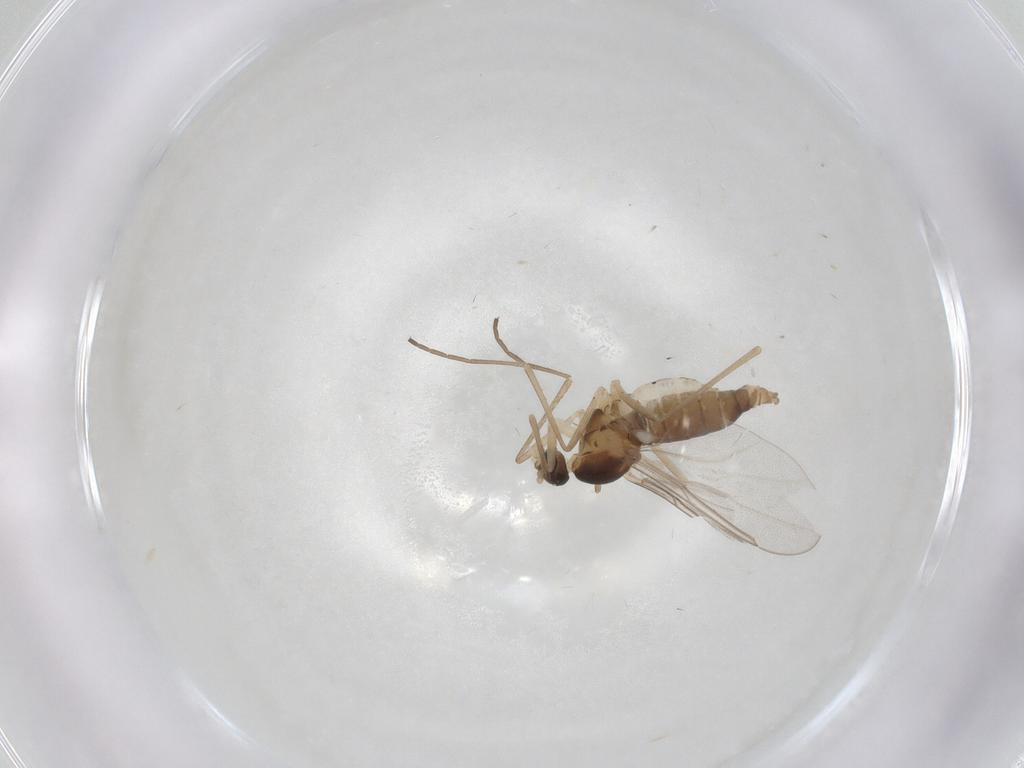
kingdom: Animalia
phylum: Arthropoda
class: Insecta
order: Diptera
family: Cecidomyiidae
